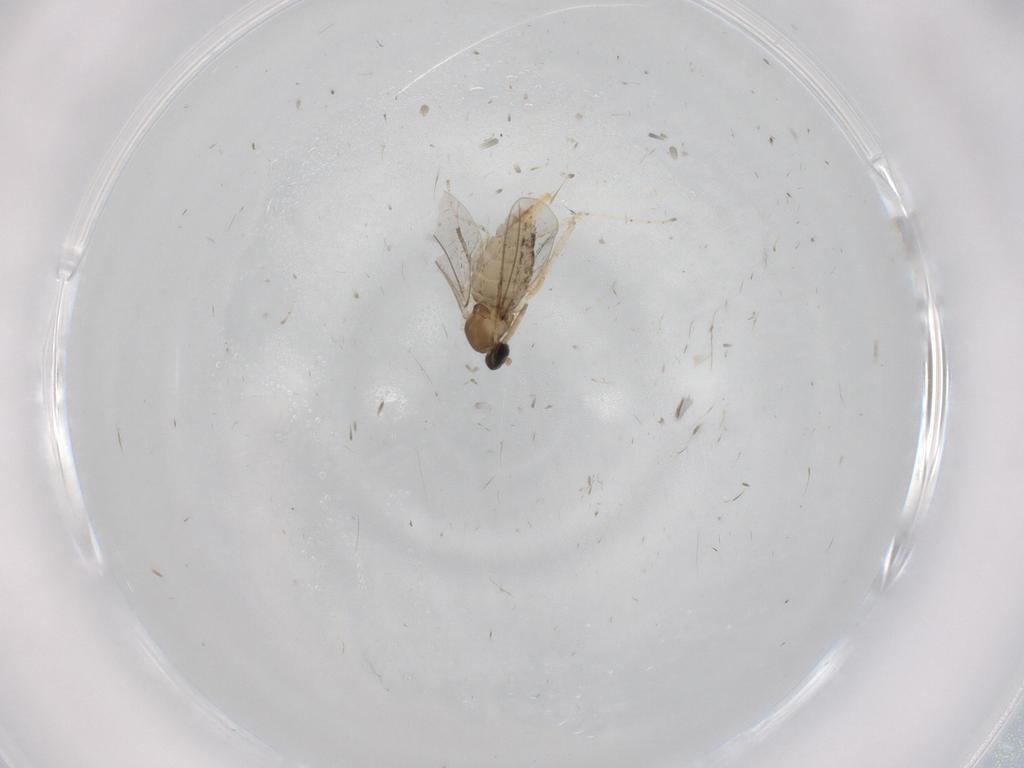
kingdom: Animalia
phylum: Arthropoda
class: Insecta
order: Diptera
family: Cecidomyiidae
